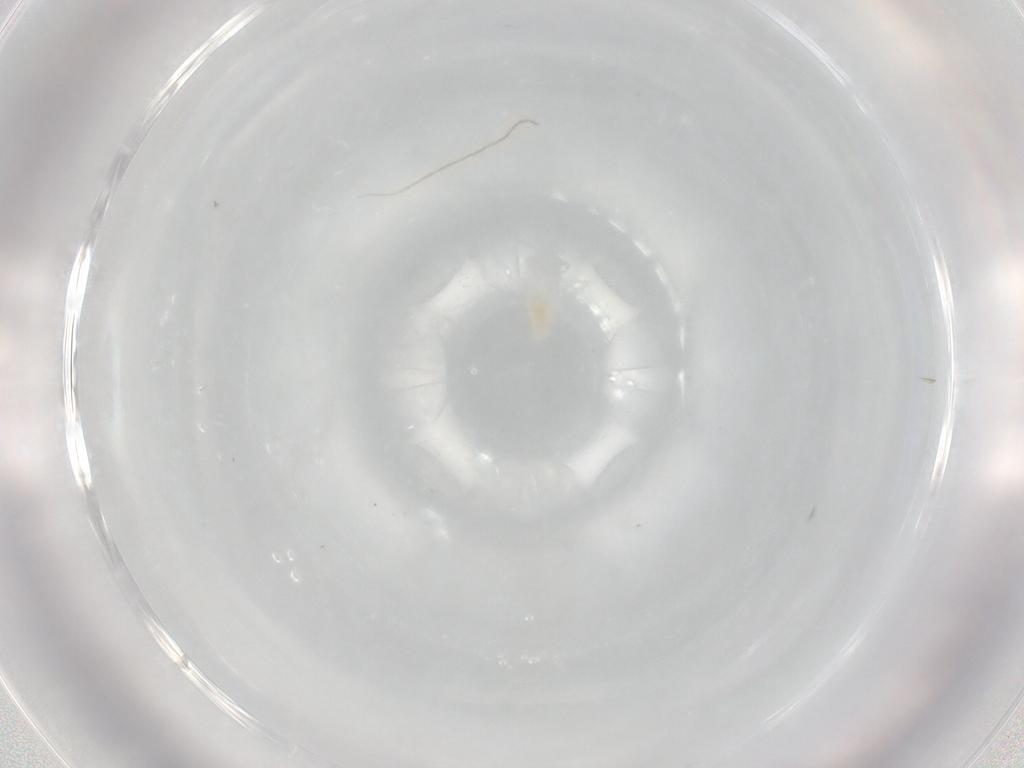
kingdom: Animalia
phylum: Arthropoda
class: Arachnida
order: Trombidiformes
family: Eupodidae
